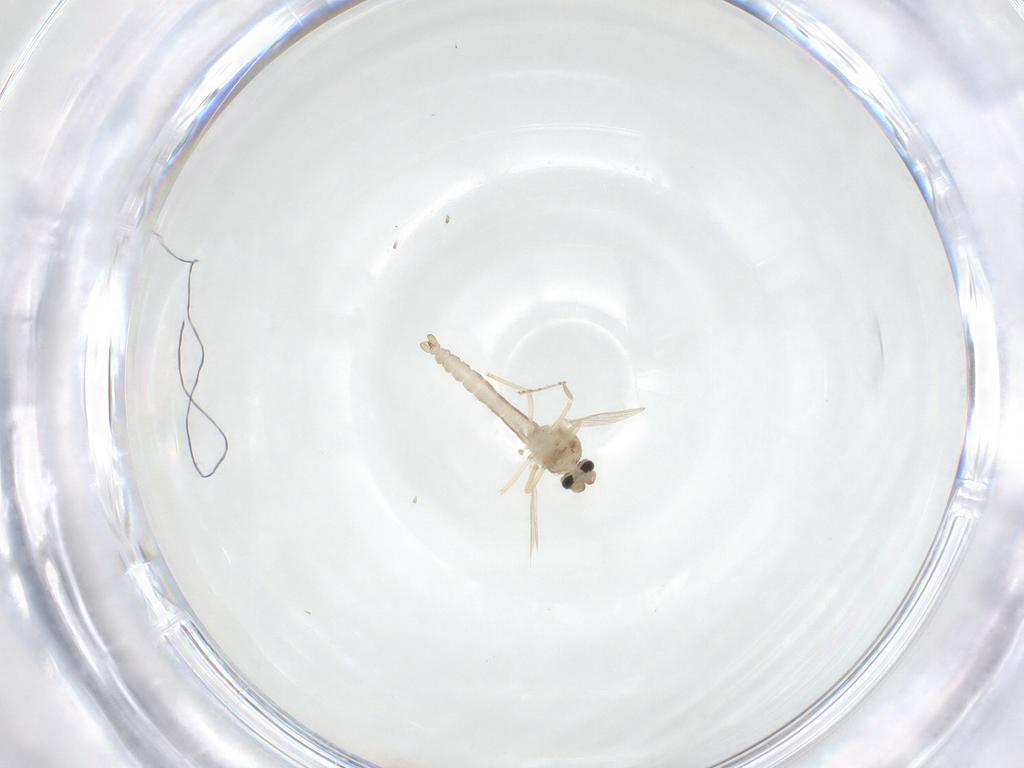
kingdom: Animalia
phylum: Arthropoda
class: Insecta
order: Diptera
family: Ceratopogonidae
